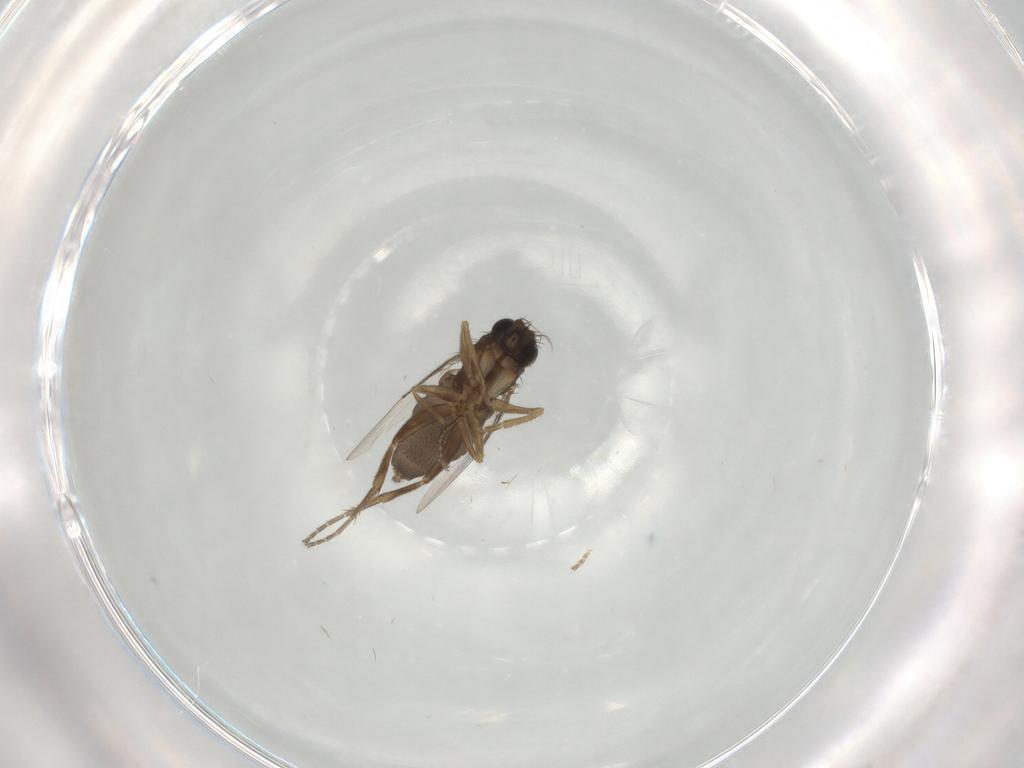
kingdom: Animalia
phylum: Arthropoda
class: Insecta
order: Diptera
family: Phoridae
